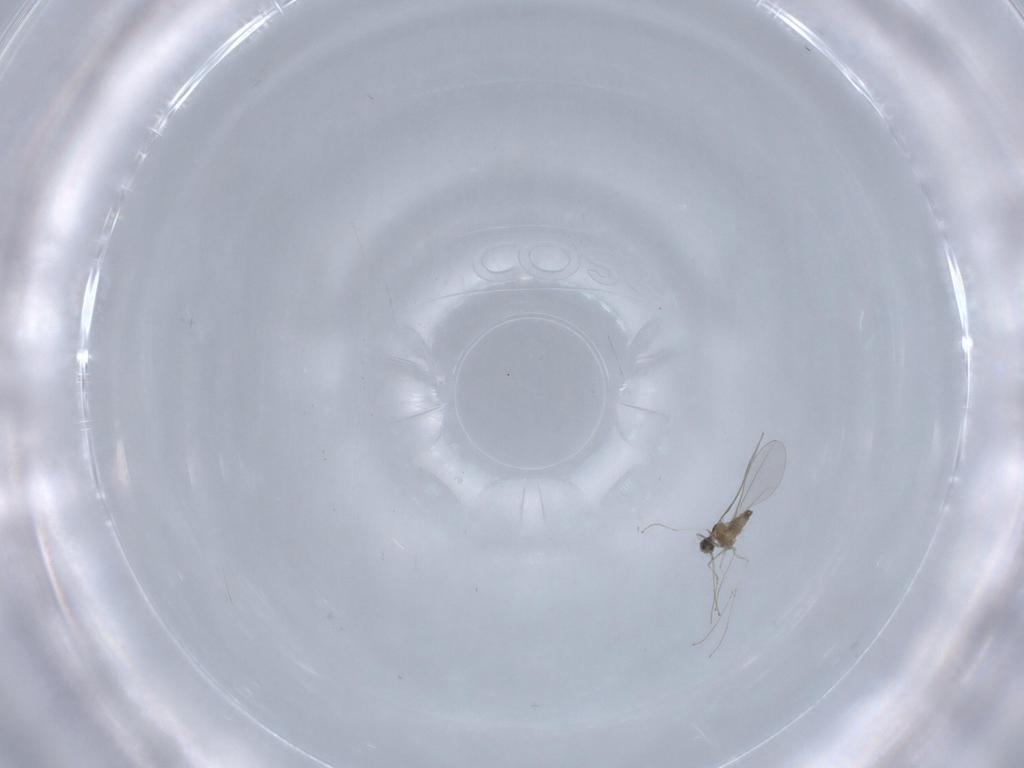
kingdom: Animalia
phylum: Arthropoda
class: Insecta
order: Diptera
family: Cecidomyiidae
